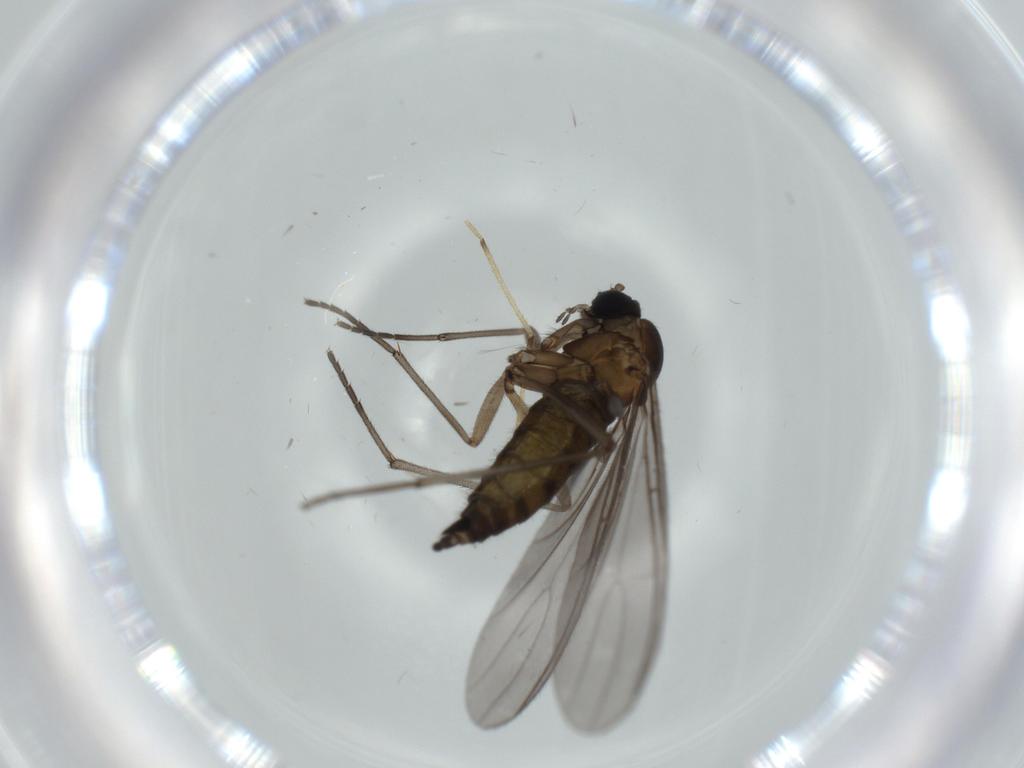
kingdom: Animalia
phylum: Arthropoda
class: Insecta
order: Diptera
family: Sciaridae
